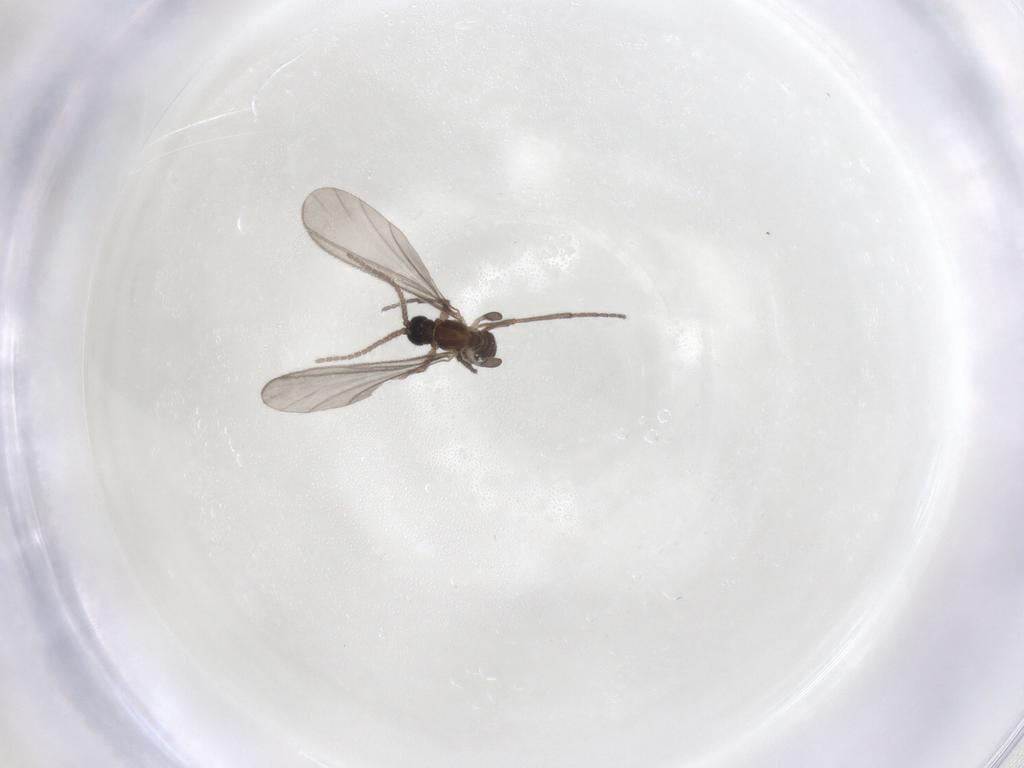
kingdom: Animalia
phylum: Arthropoda
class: Insecta
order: Diptera
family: Sciaridae
